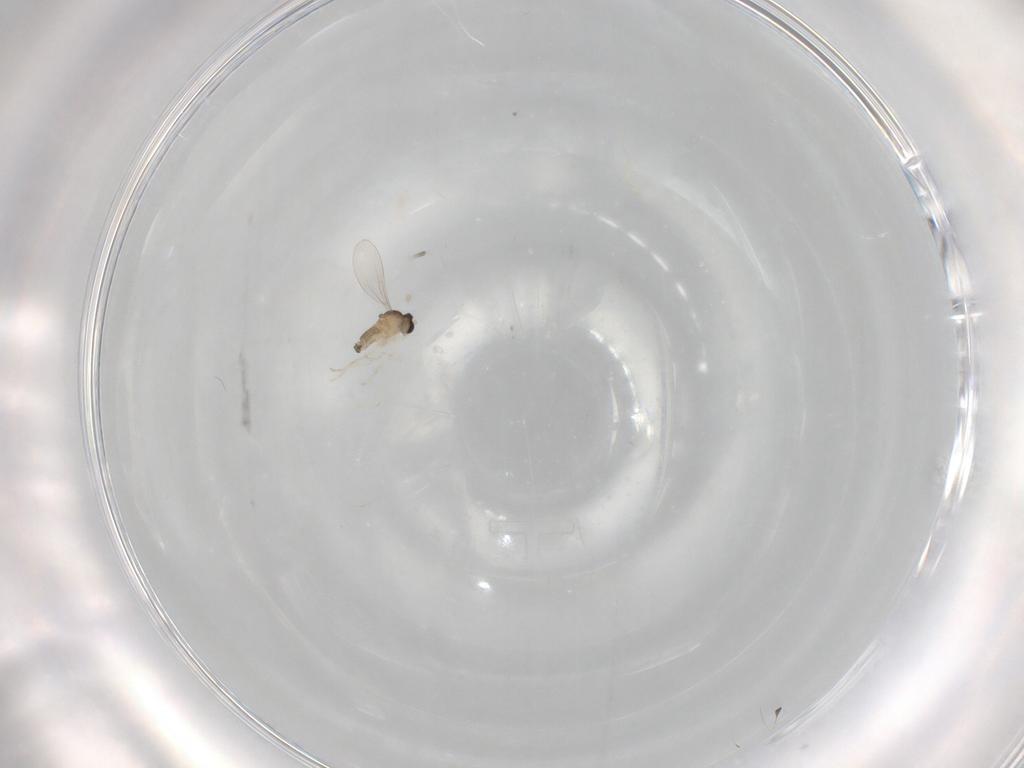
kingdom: Animalia
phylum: Arthropoda
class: Insecta
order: Diptera
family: Cecidomyiidae
